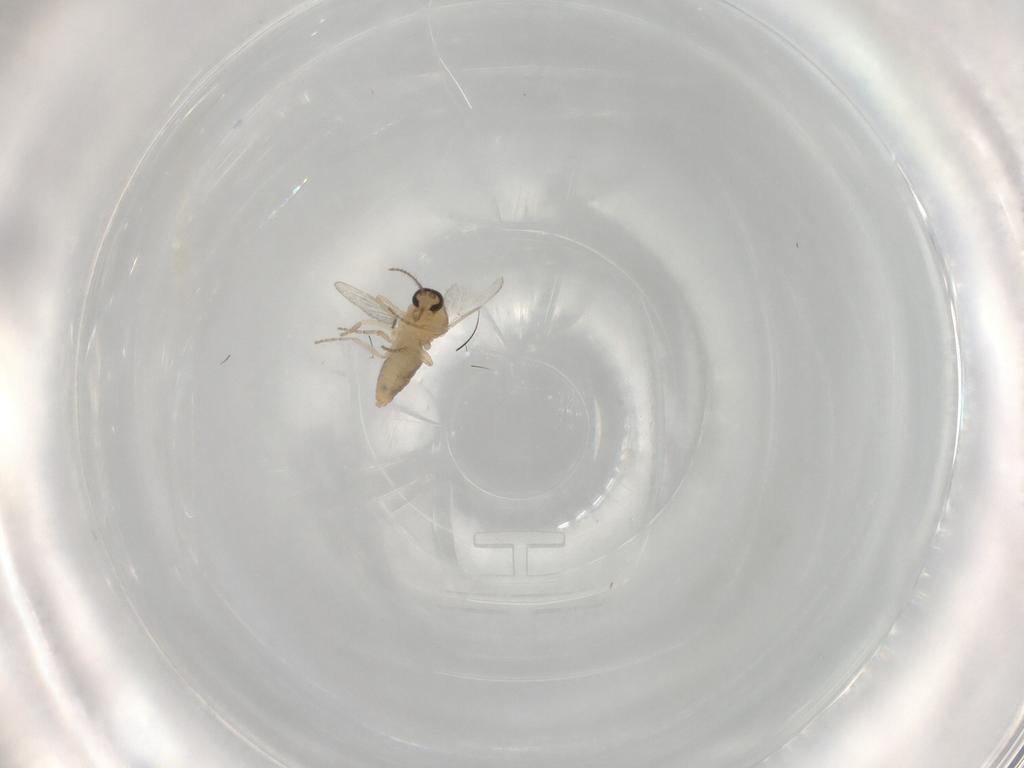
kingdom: Animalia
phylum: Arthropoda
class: Insecta
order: Diptera
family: Ceratopogonidae
